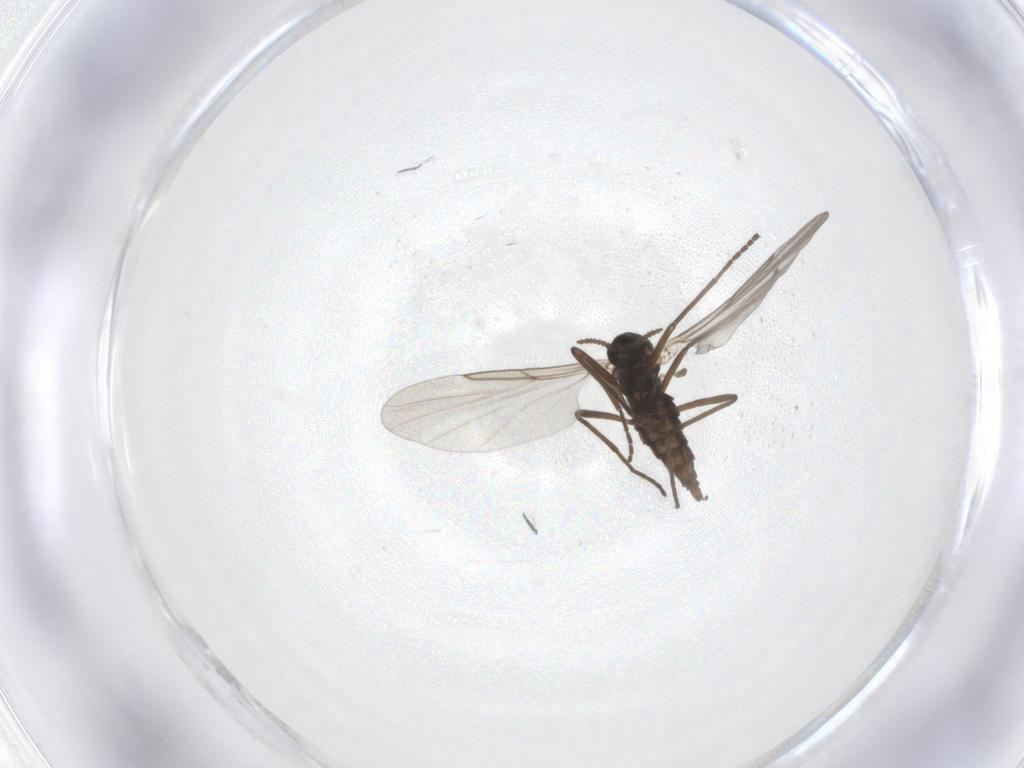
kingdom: Animalia
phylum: Arthropoda
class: Insecta
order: Diptera
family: Cecidomyiidae
